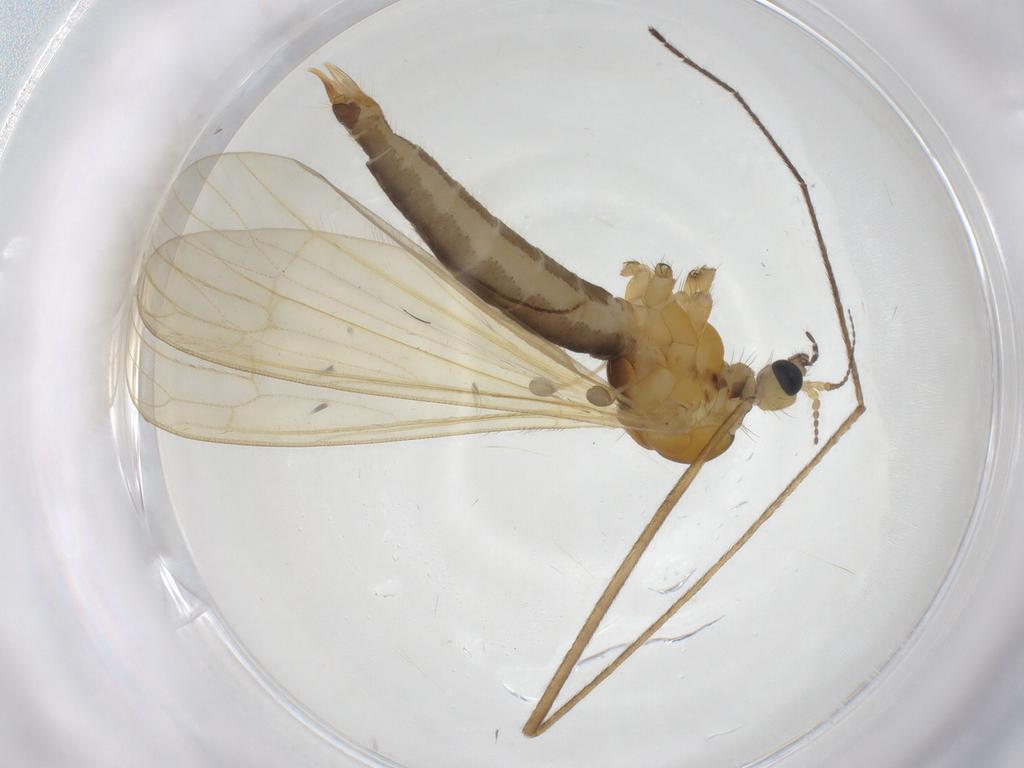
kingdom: Animalia
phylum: Arthropoda
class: Insecta
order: Diptera
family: Limoniidae
